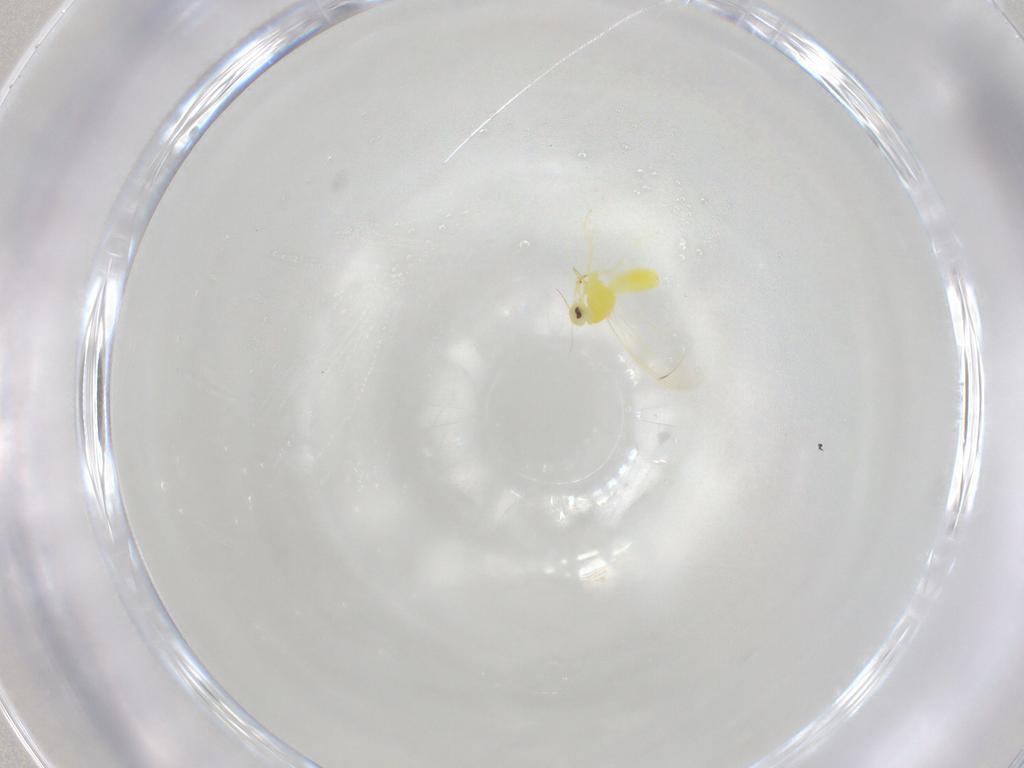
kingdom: Animalia
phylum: Arthropoda
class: Insecta
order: Hemiptera
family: Aleyrodidae
